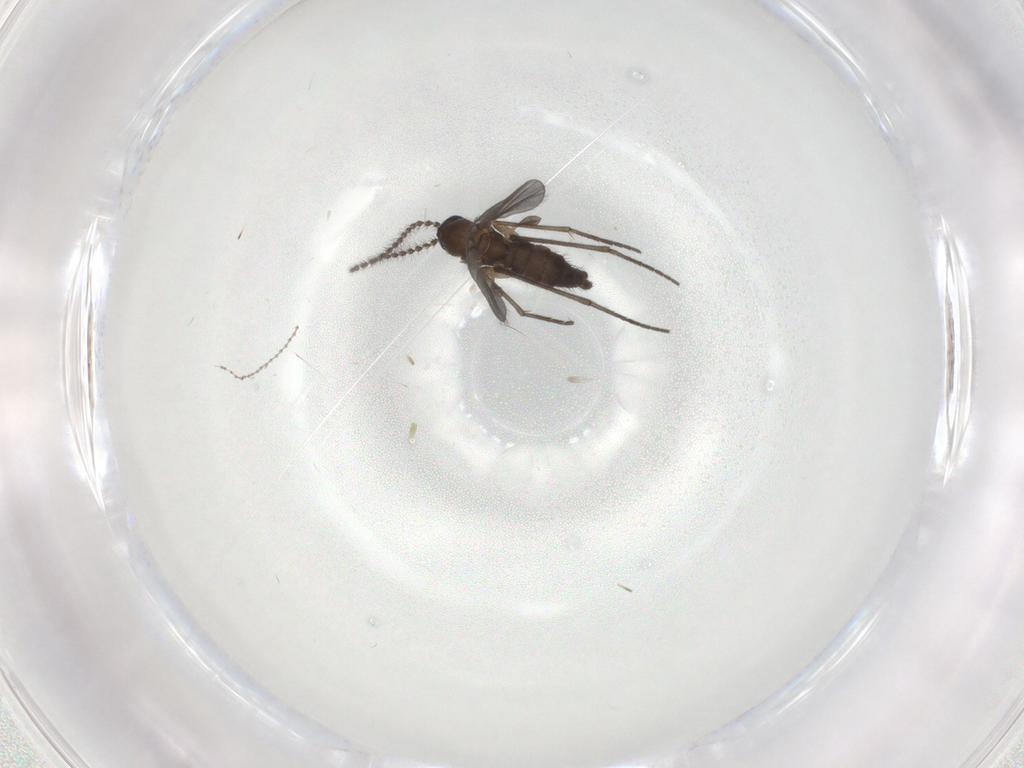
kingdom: Animalia
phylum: Arthropoda
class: Insecta
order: Diptera
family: Sciaridae
